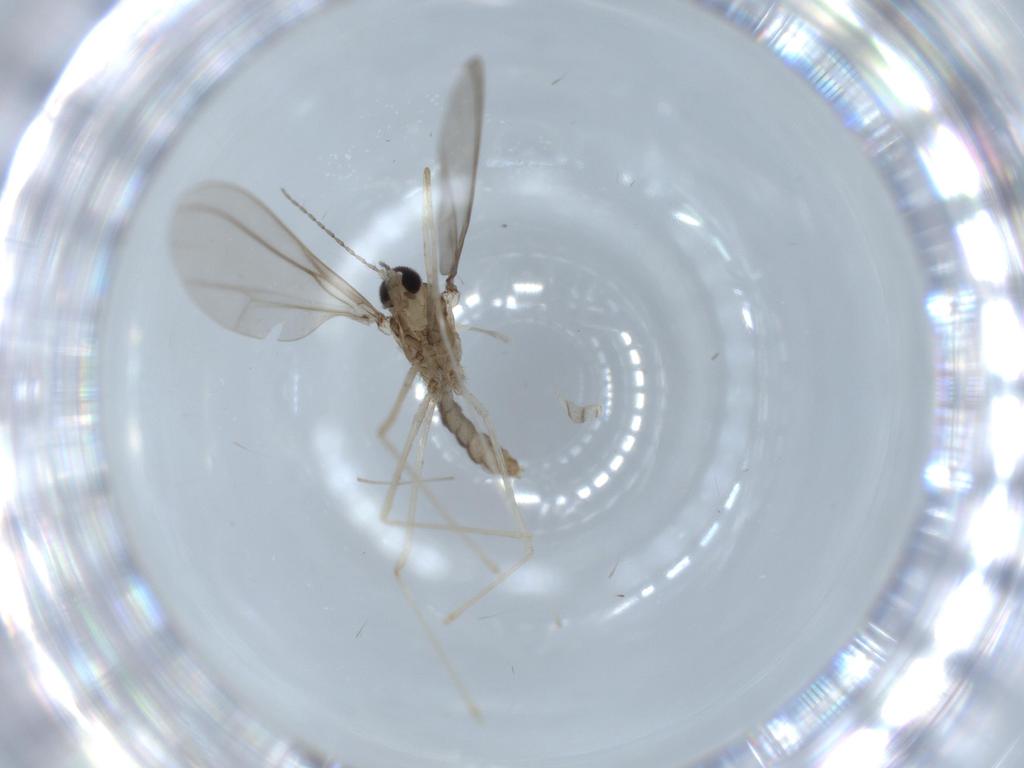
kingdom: Animalia
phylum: Arthropoda
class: Insecta
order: Diptera
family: Cecidomyiidae
